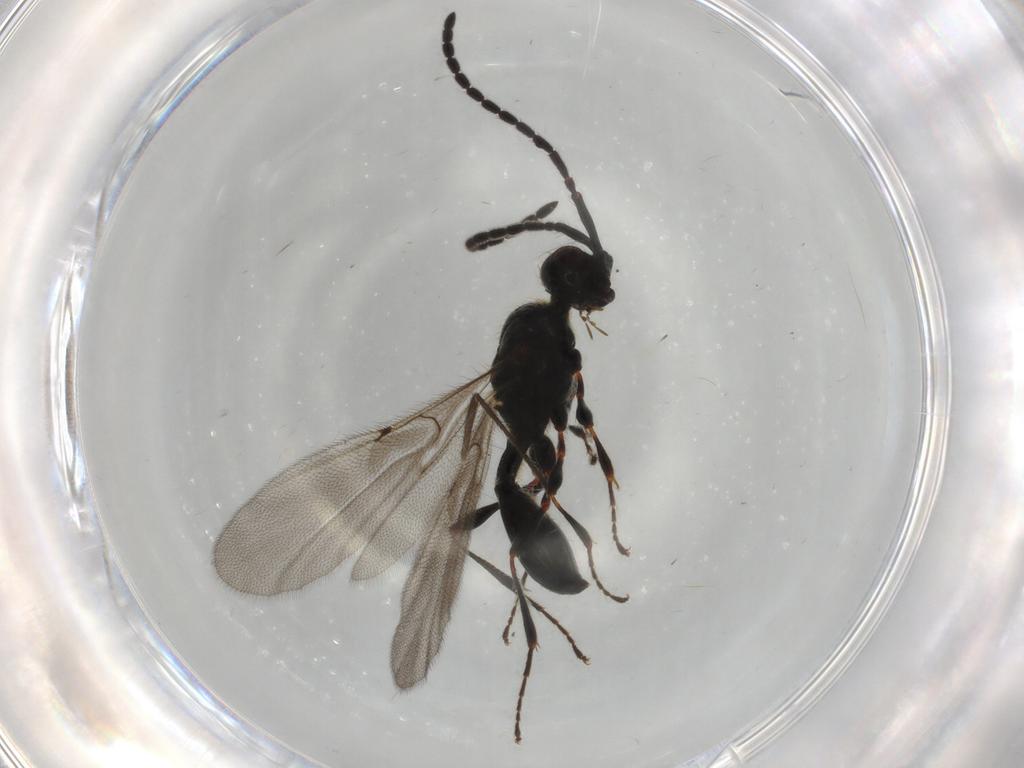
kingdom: Animalia
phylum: Arthropoda
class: Insecta
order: Hymenoptera
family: Diapriidae
